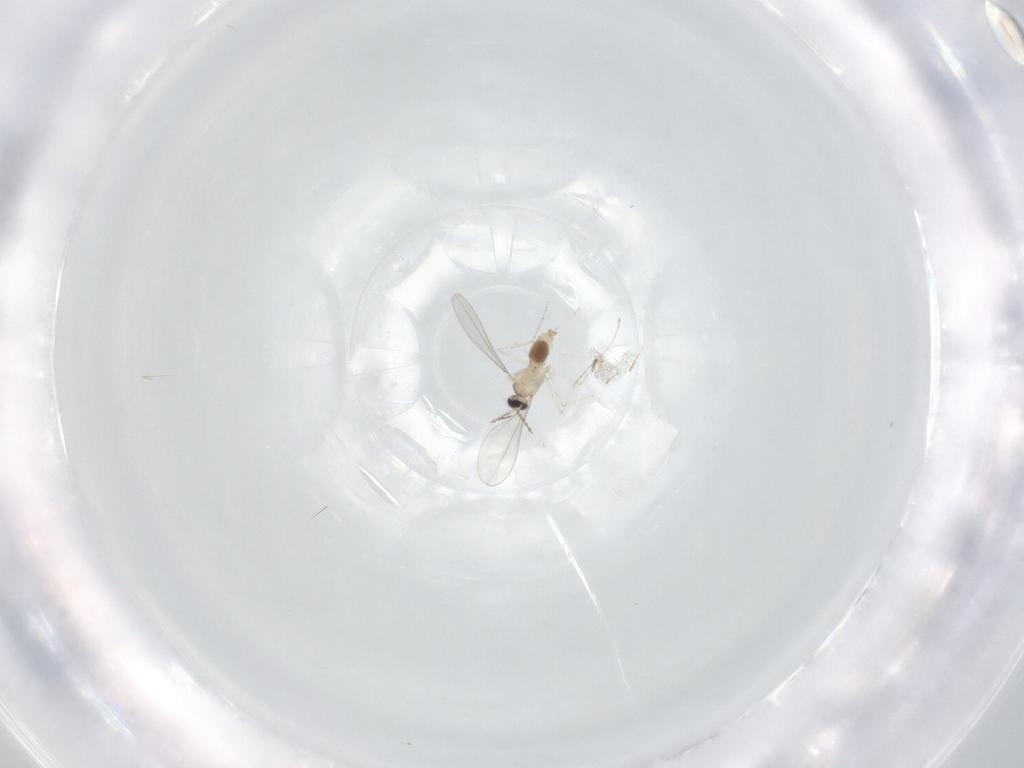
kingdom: Animalia
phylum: Arthropoda
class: Insecta
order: Diptera
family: Cecidomyiidae
